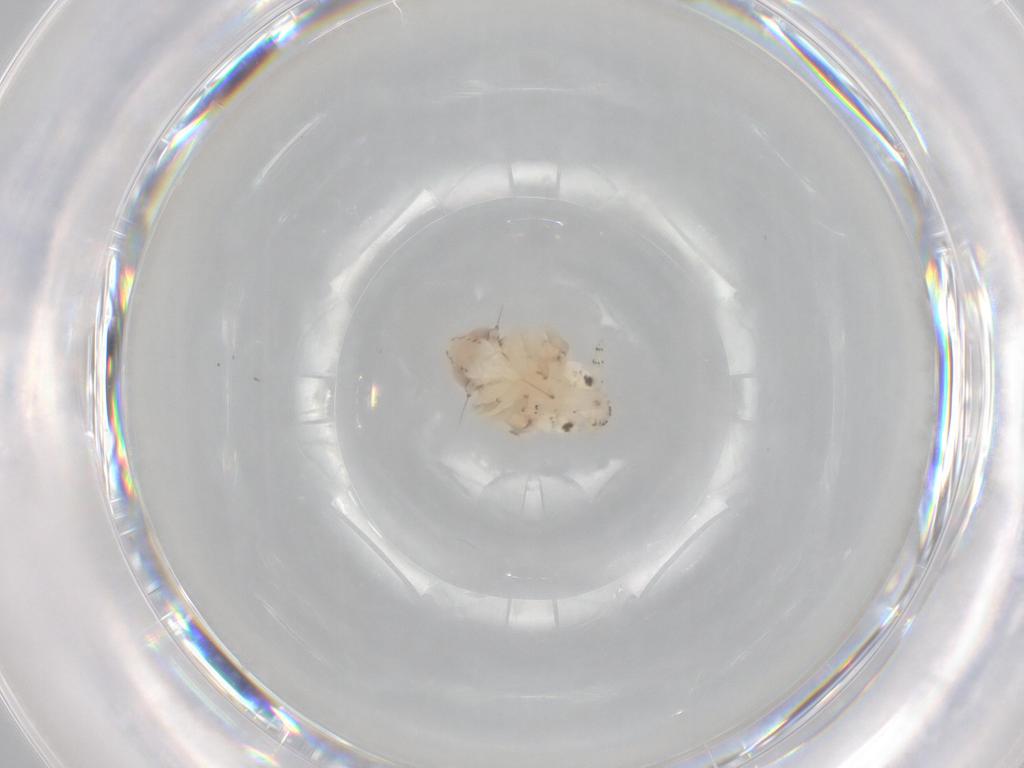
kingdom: Animalia
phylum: Arthropoda
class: Insecta
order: Hemiptera
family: Nogodinidae
